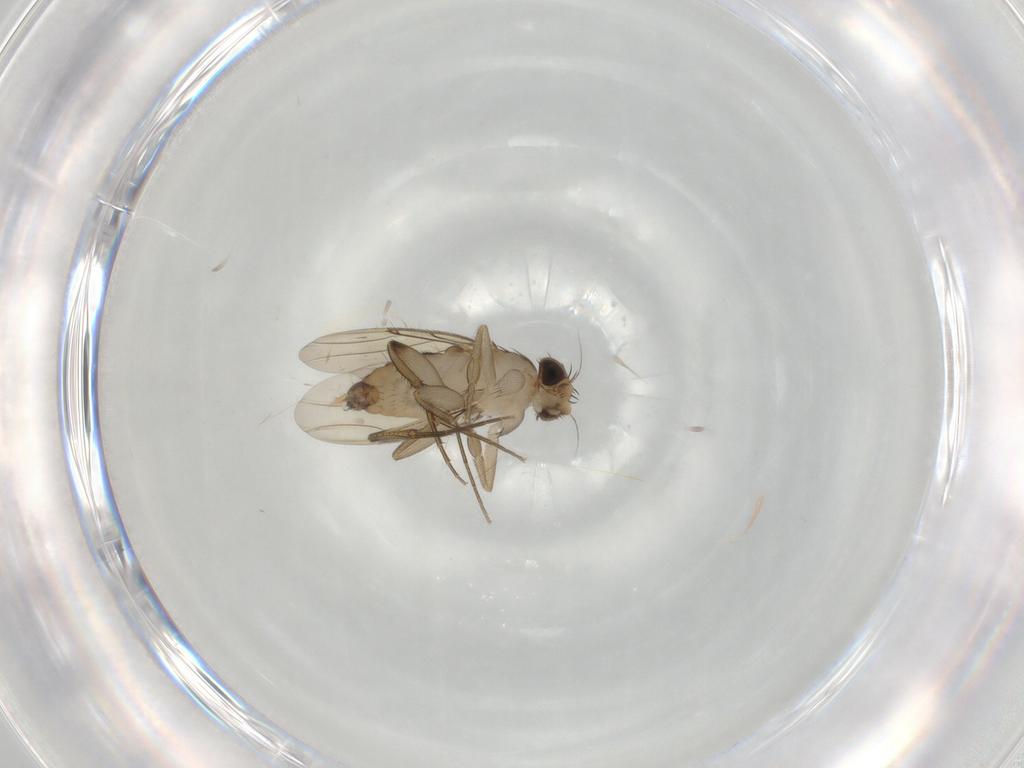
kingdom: Animalia
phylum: Arthropoda
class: Insecta
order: Diptera
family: Phoridae
